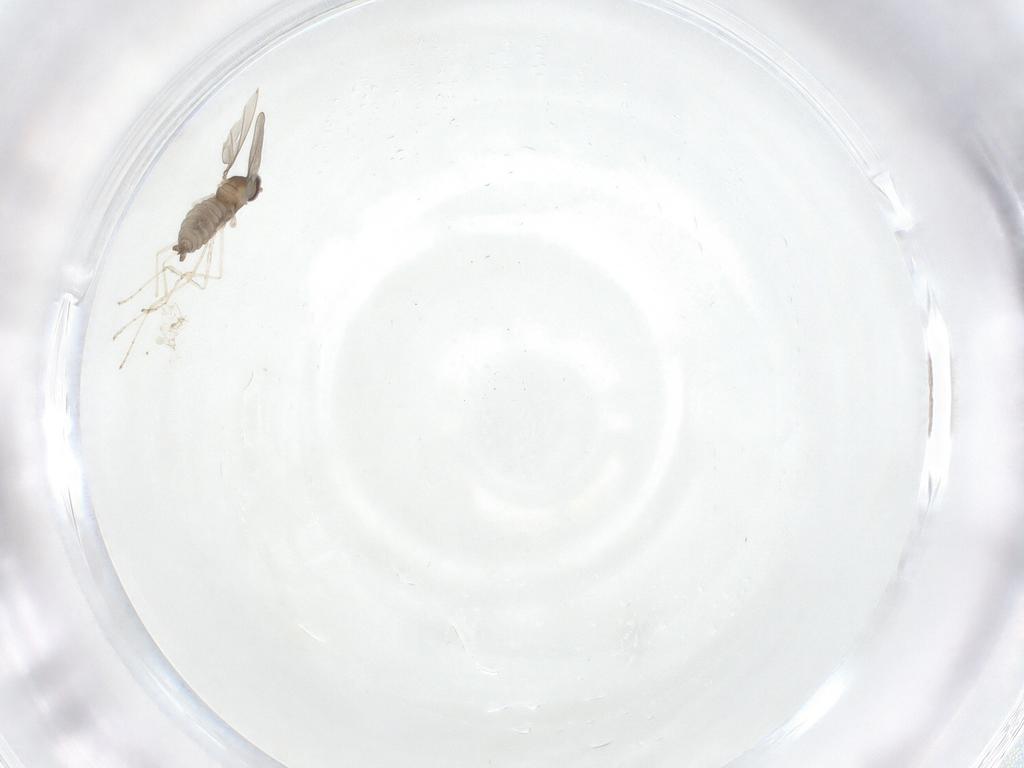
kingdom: Animalia
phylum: Arthropoda
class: Insecta
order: Diptera
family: Cecidomyiidae
